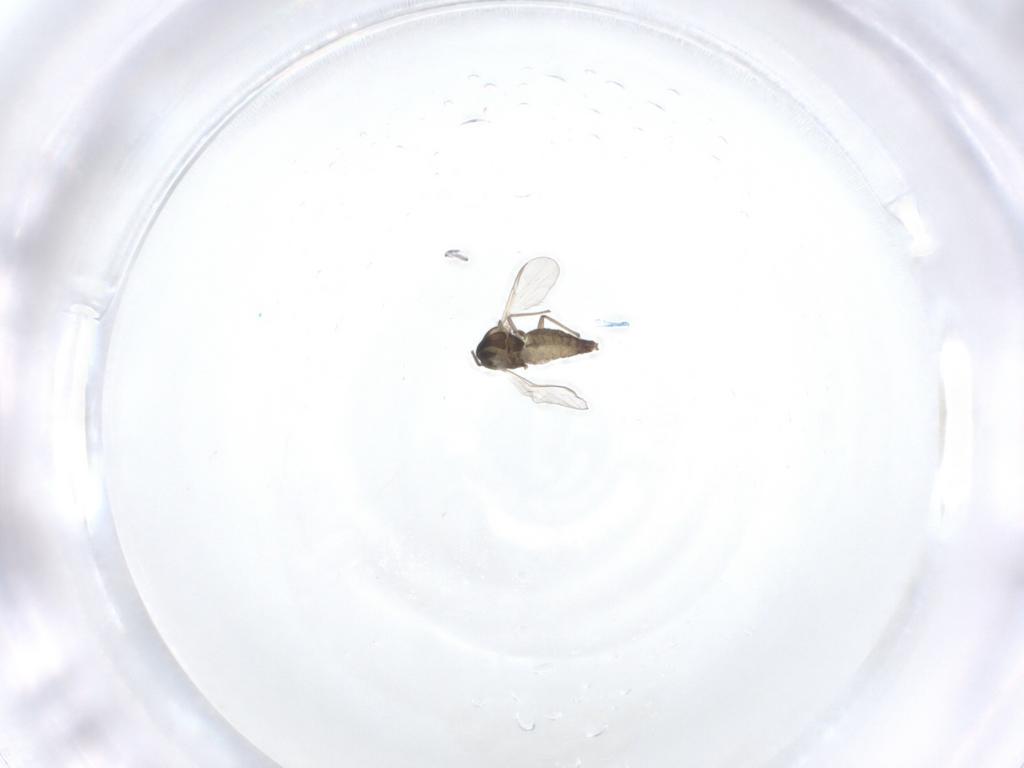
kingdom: Animalia
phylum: Arthropoda
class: Insecta
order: Diptera
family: Chironomidae
